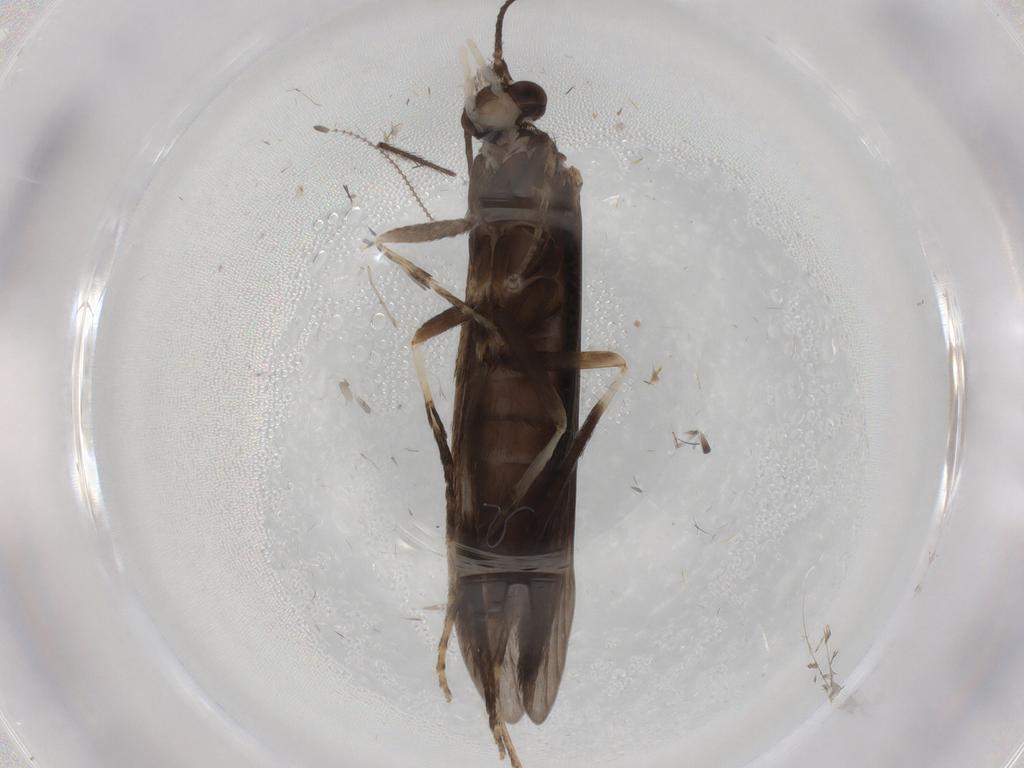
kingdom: Animalia
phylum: Arthropoda
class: Insecta
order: Trichoptera
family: Xiphocentronidae
